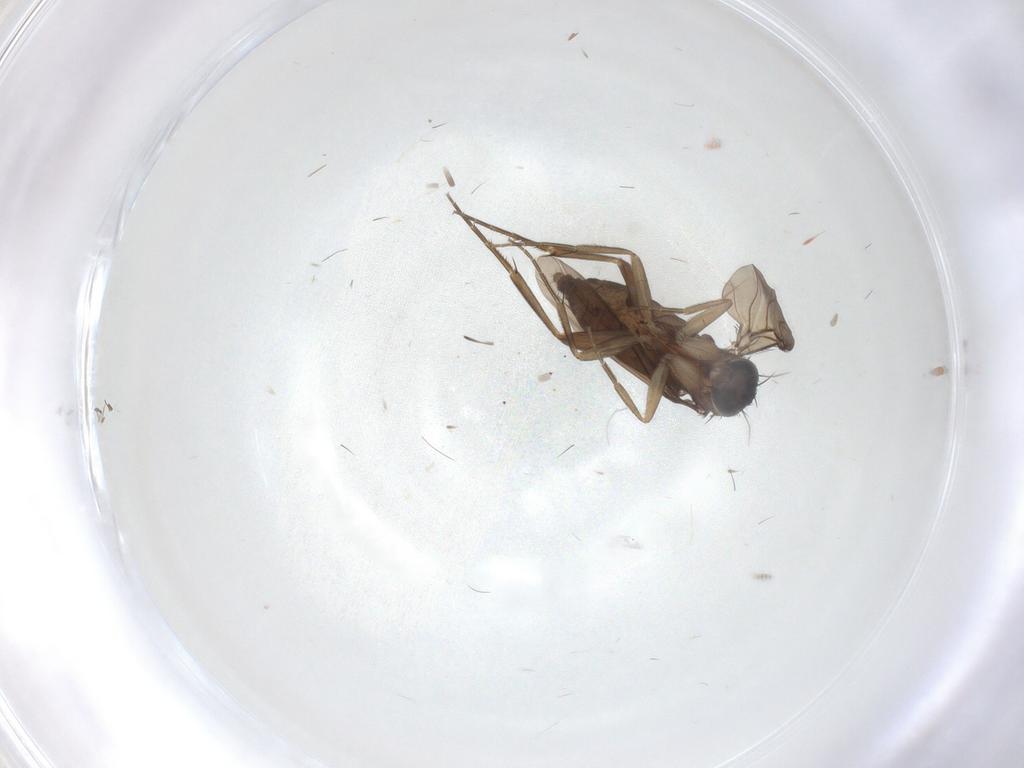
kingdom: Animalia
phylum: Arthropoda
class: Insecta
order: Diptera
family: Phoridae
